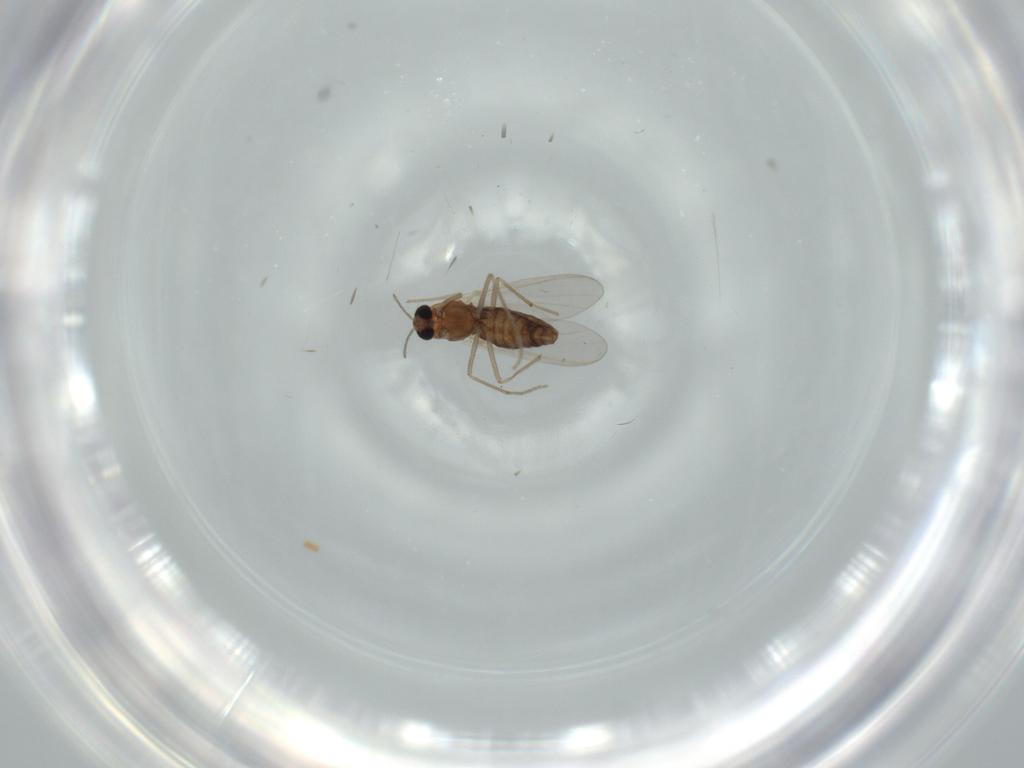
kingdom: Animalia
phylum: Arthropoda
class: Insecta
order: Diptera
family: Chironomidae
